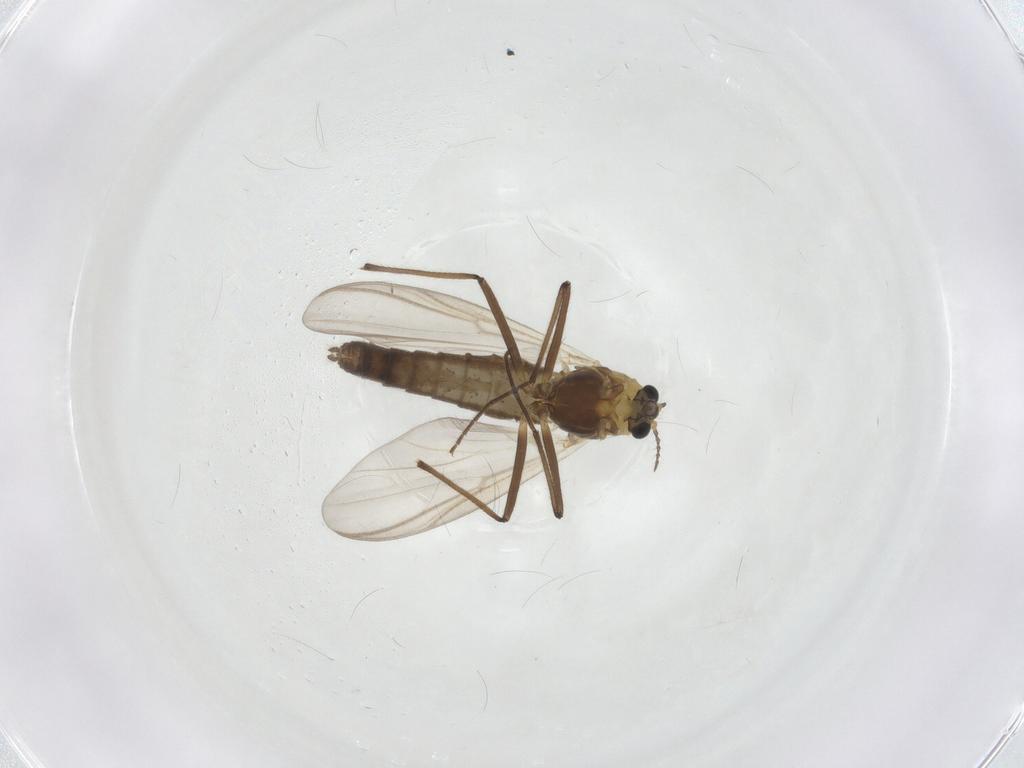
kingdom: Animalia
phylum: Arthropoda
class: Insecta
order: Diptera
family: Chironomidae
